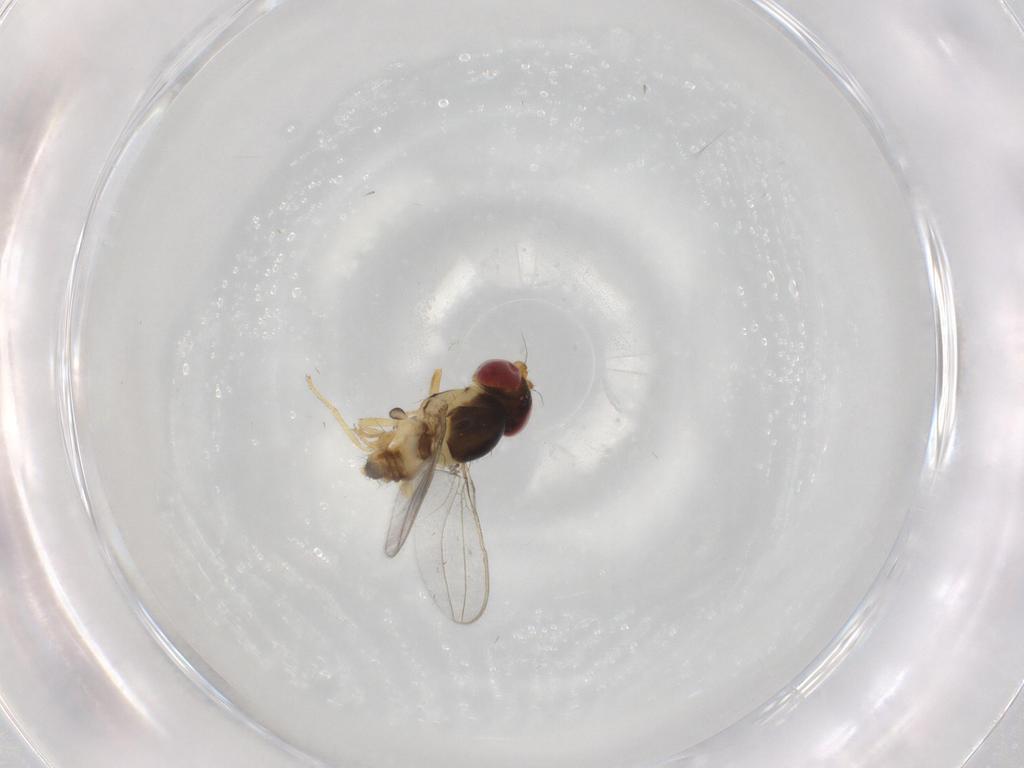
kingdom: Animalia
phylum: Arthropoda
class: Insecta
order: Diptera
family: Asteiidae
